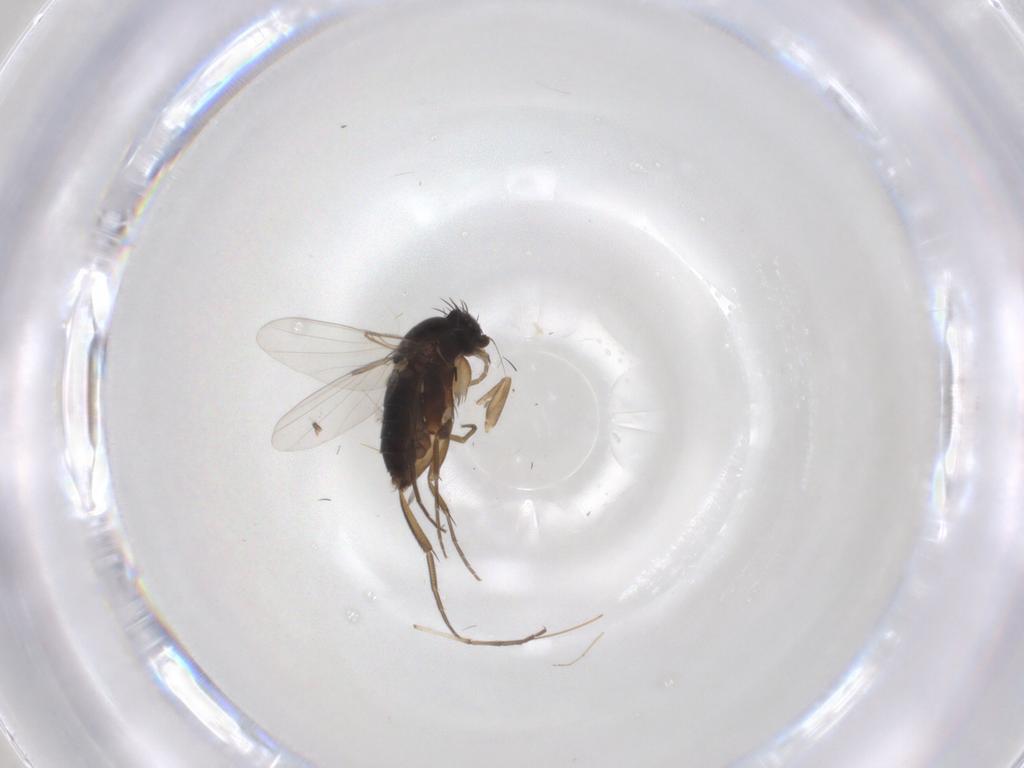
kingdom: Animalia
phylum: Arthropoda
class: Insecta
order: Diptera
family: Phoridae
